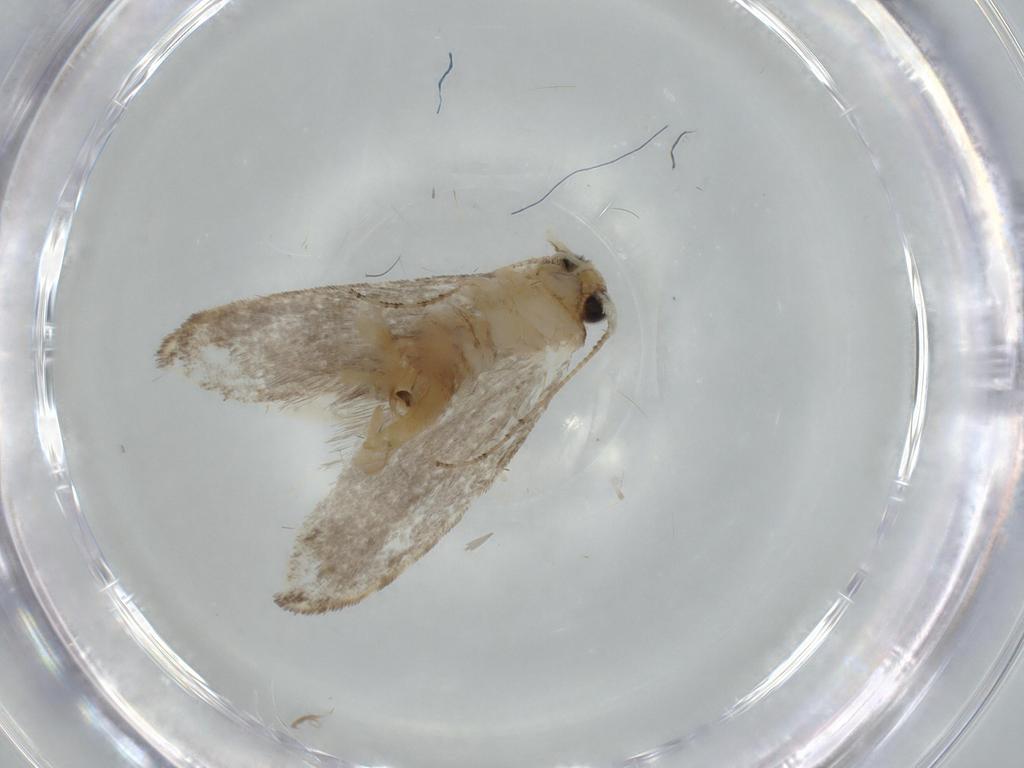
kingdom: Animalia
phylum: Arthropoda
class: Insecta
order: Lepidoptera
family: Tineidae
